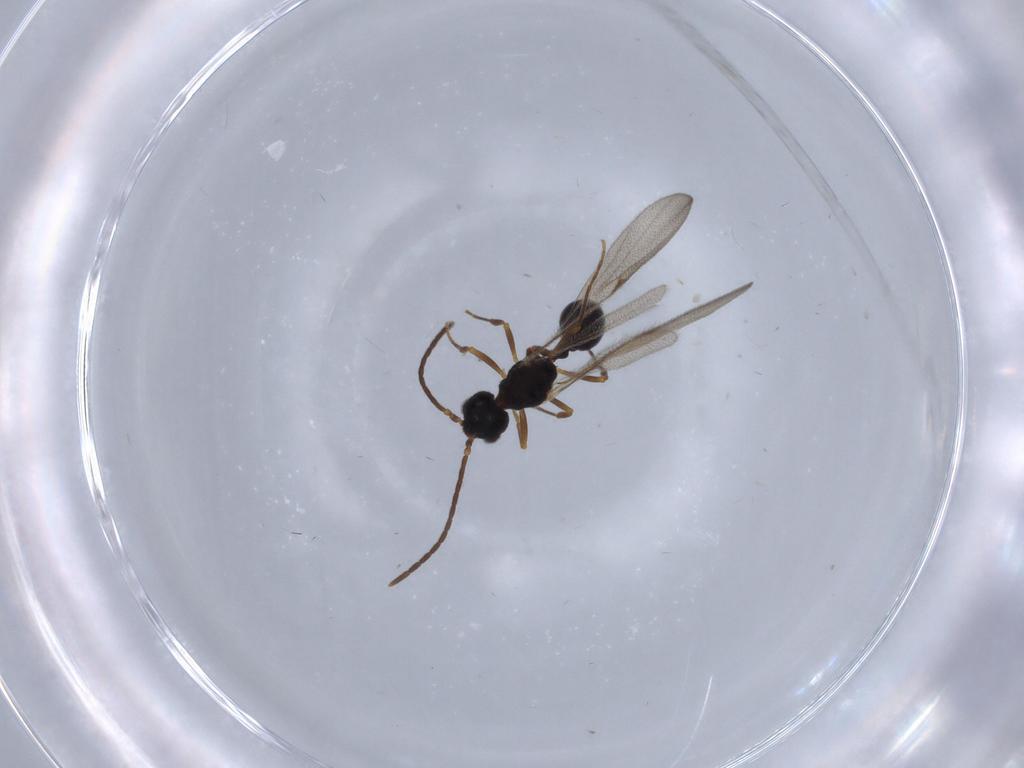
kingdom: Animalia
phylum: Arthropoda
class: Insecta
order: Hymenoptera
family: Formicidae
